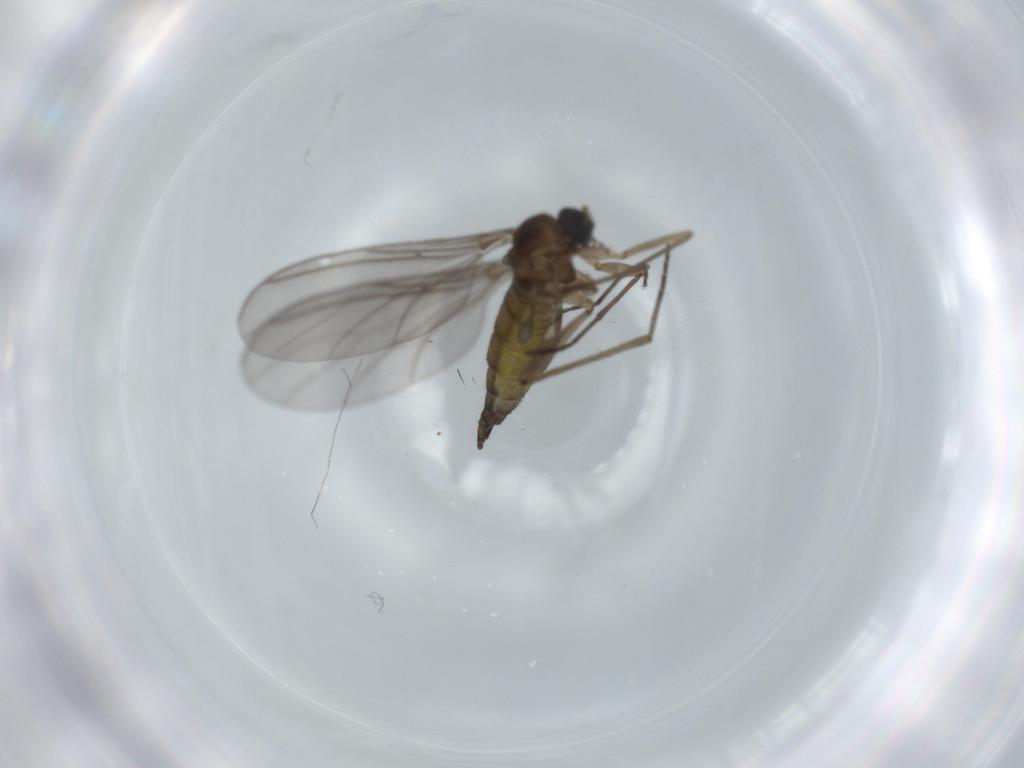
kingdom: Animalia
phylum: Arthropoda
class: Insecta
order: Diptera
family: Sciaridae
